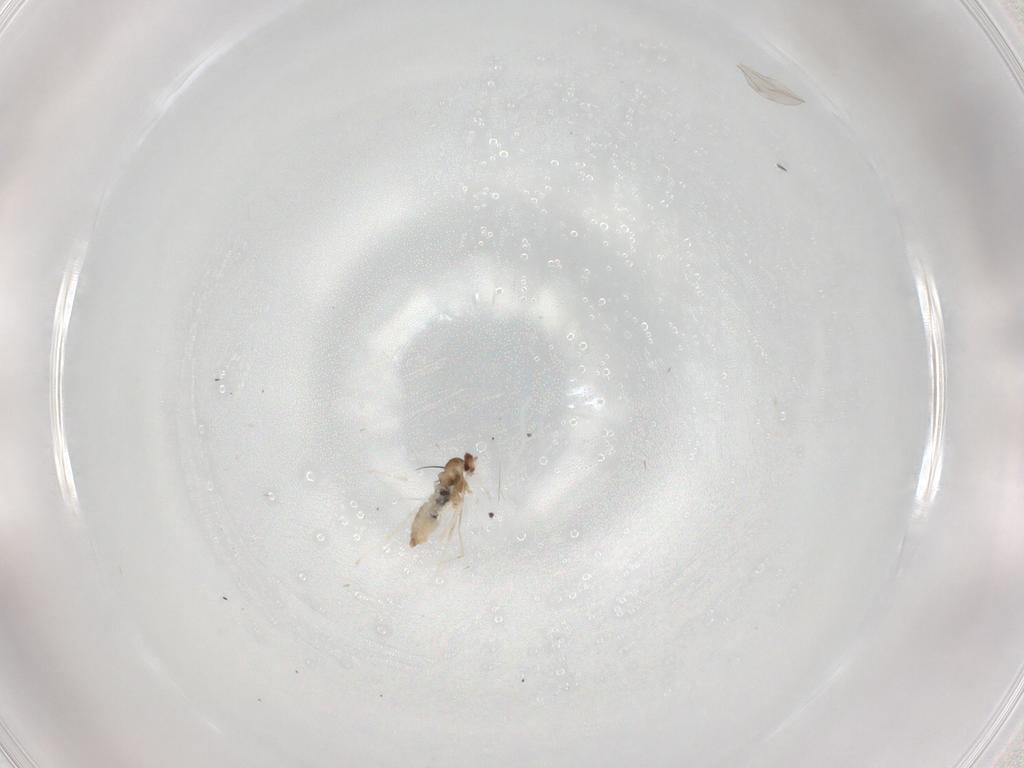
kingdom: Animalia
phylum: Arthropoda
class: Insecta
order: Diptera
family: Cecidomyiidae
